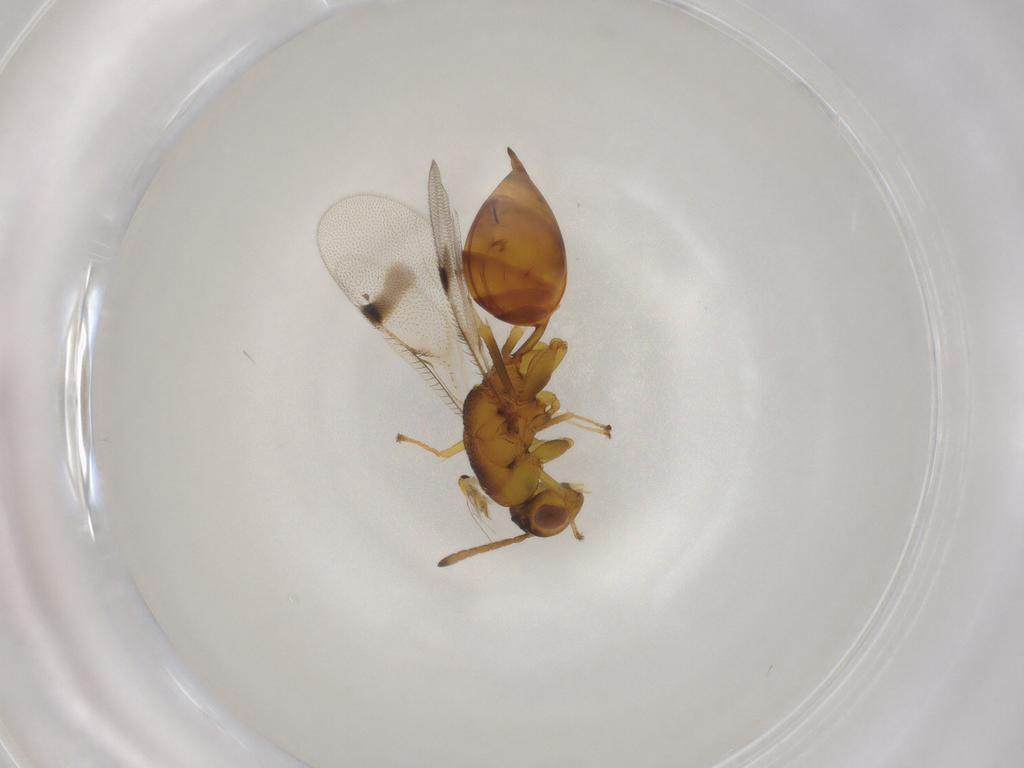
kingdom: Animalia
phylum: Arthropoda
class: Insecta
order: Hymenoptera
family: Trichogrammatidae
